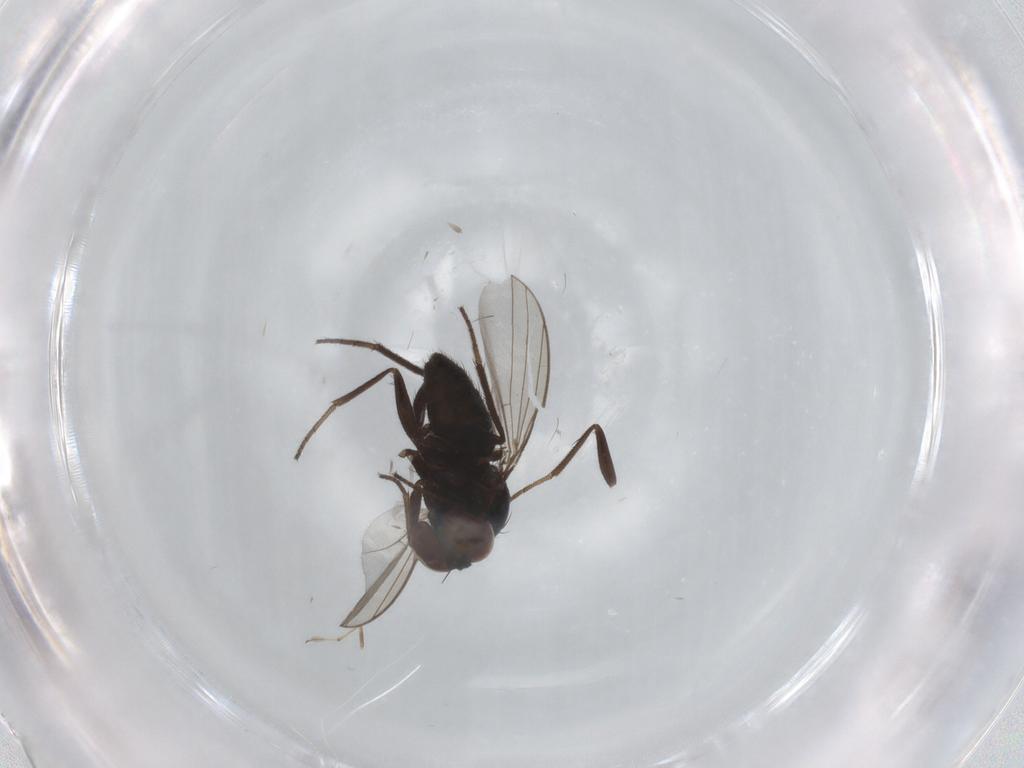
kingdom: Animalia
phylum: Arthropoda
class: Insecta
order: Diptera
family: Dolichopodidae
